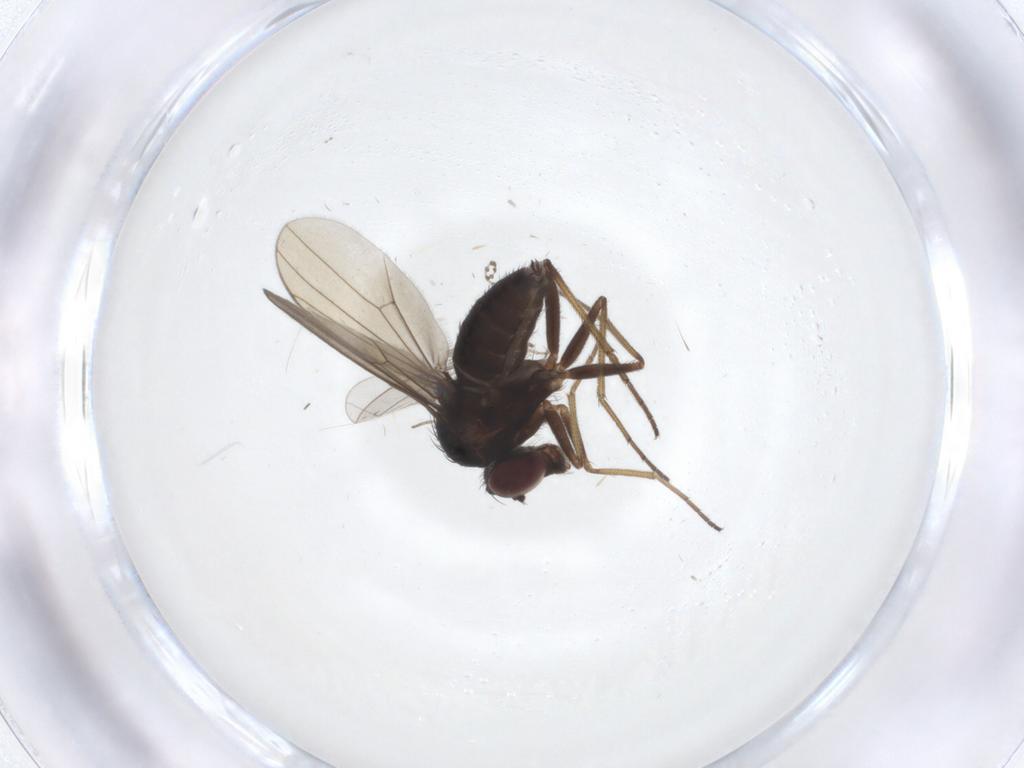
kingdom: Animalia
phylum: Arthropoda
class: Insecta
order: Diptera
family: Dolichopodidae
